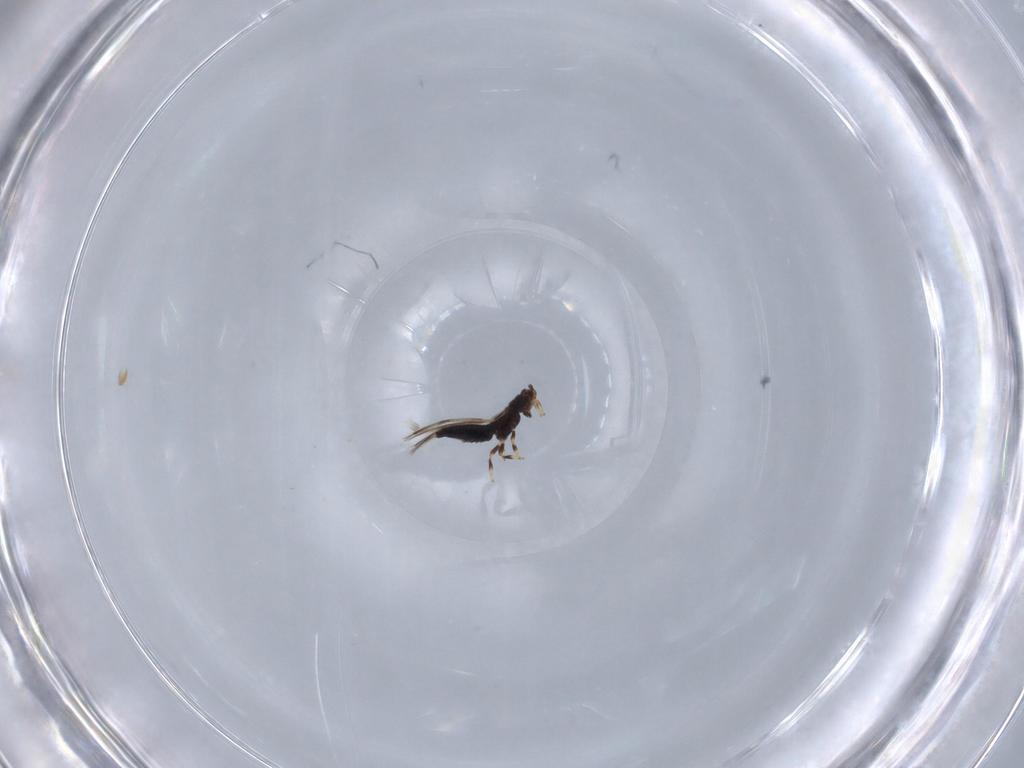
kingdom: Animalia
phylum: Arthropoda
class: Insecta
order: Thysanoptera
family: Thripidae
